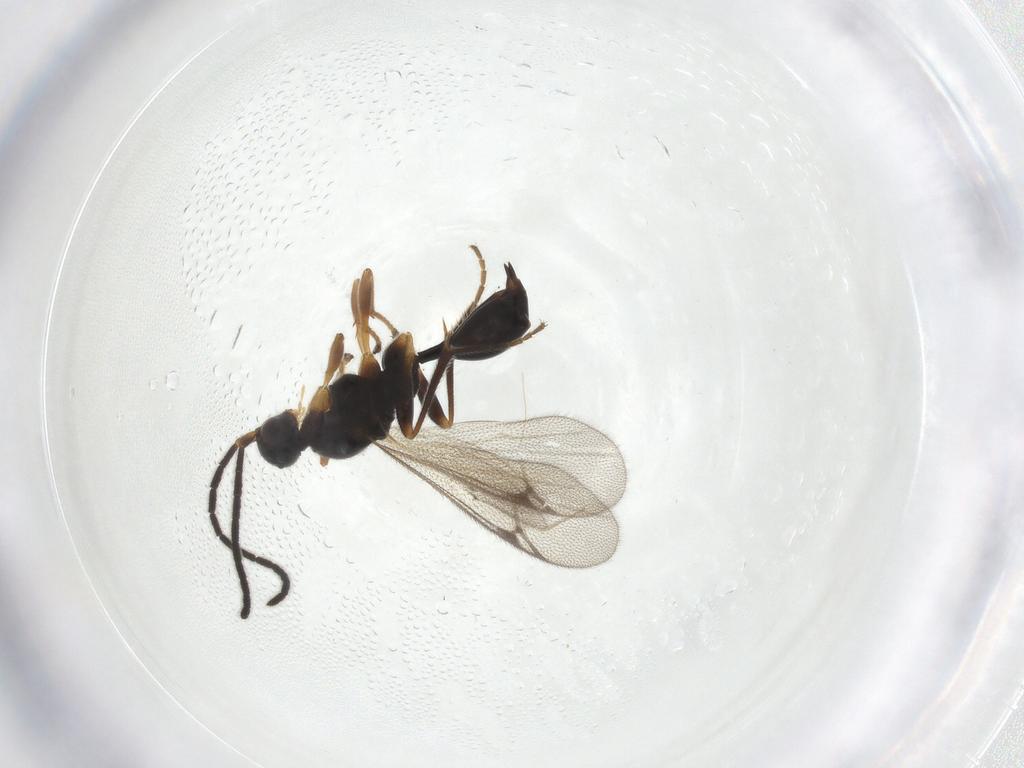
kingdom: Animalia
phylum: Arthropoda
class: Insecta
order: Hymenoptera
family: Proctotrupidae
